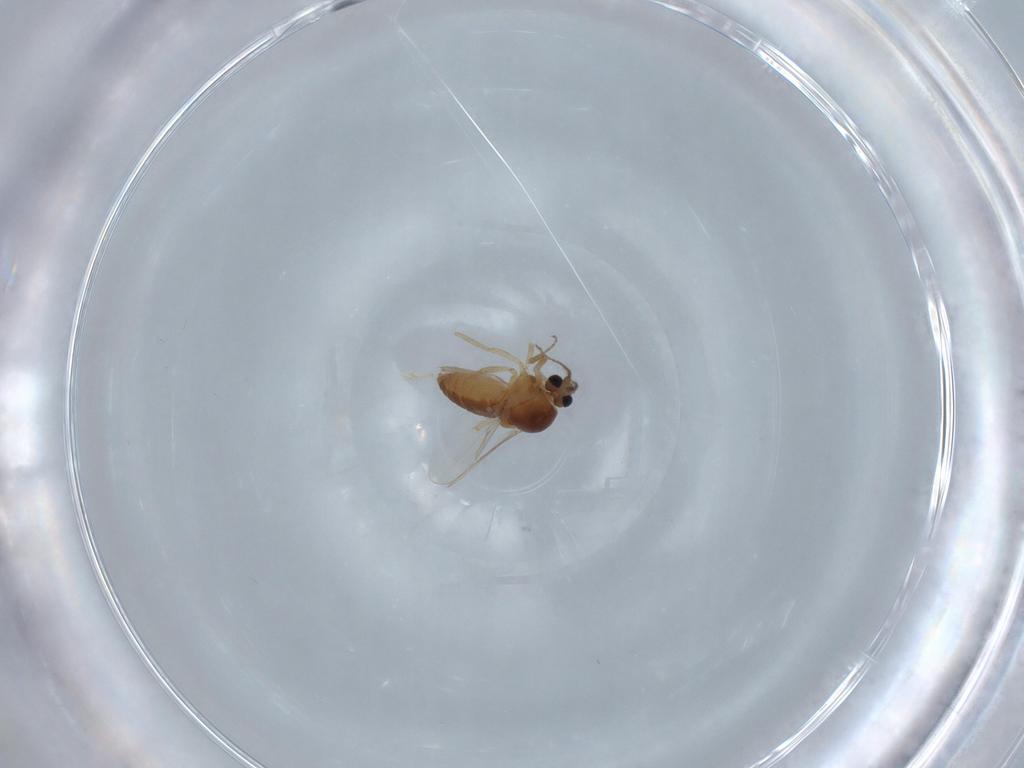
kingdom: Animalia
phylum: Arthropoda
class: Insecta
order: Diptera
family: Ceratopogonidae
